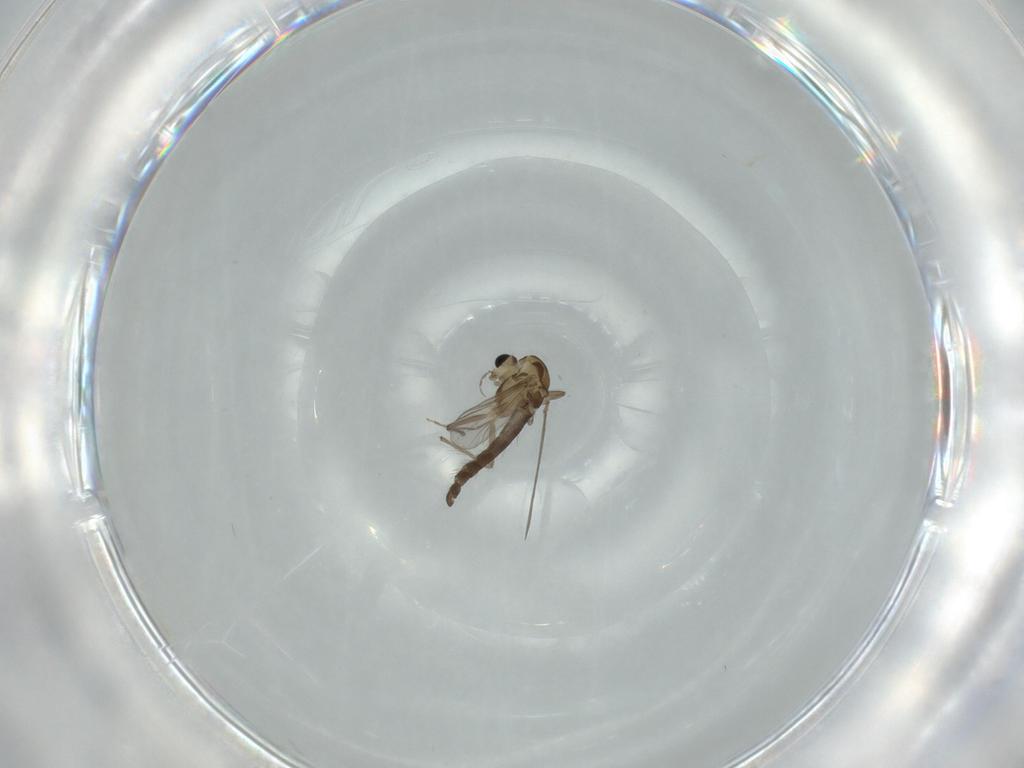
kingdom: Animalia
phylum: Arthropoda
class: Insecta
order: Diptera
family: Chironomidae
